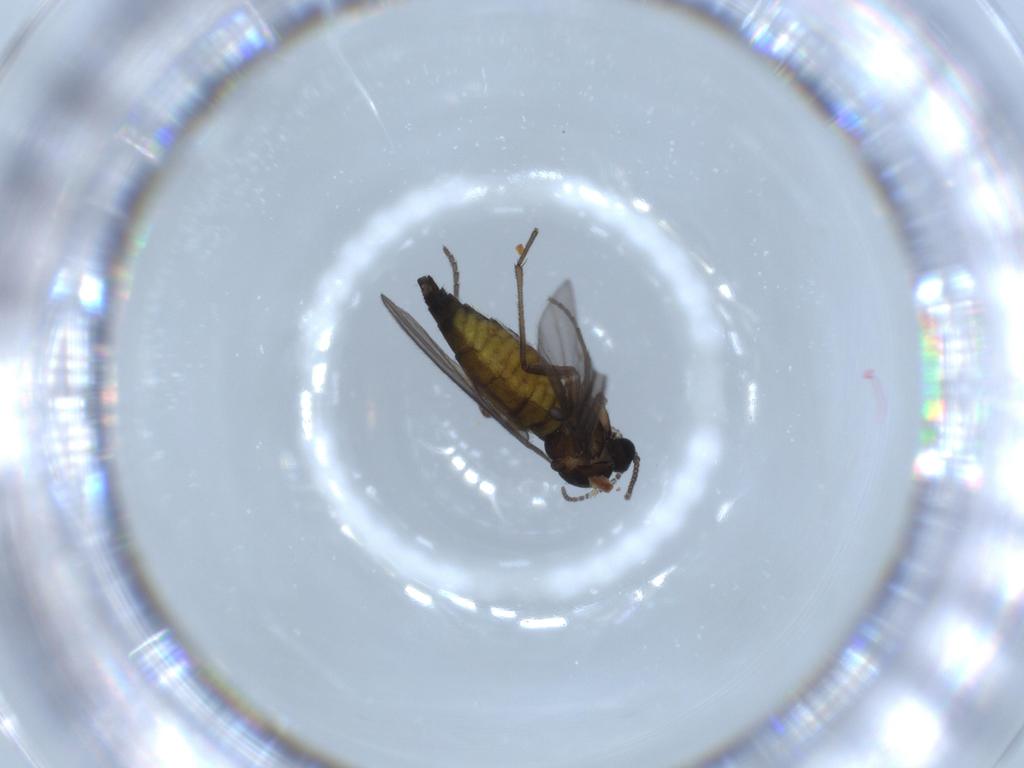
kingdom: Animalia
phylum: Arthropoda
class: Insecta
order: Diptera
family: Sciaridae
